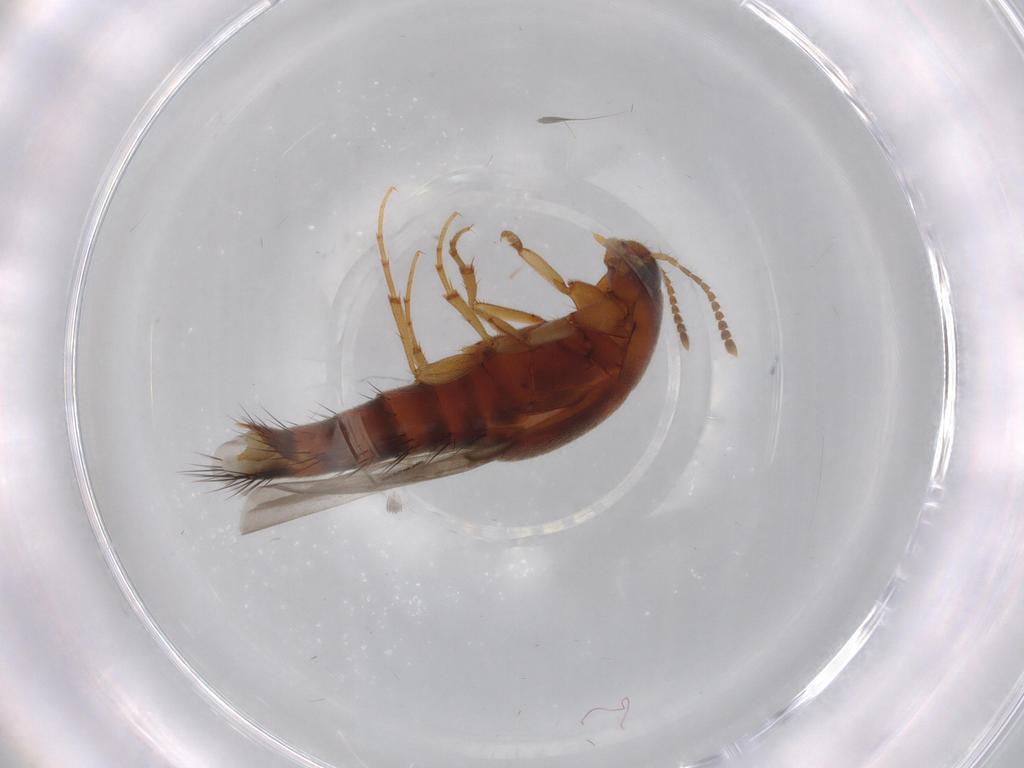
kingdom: Animalia
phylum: Arthropoda
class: Insecta
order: Coleoptera
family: Staphylinidae
